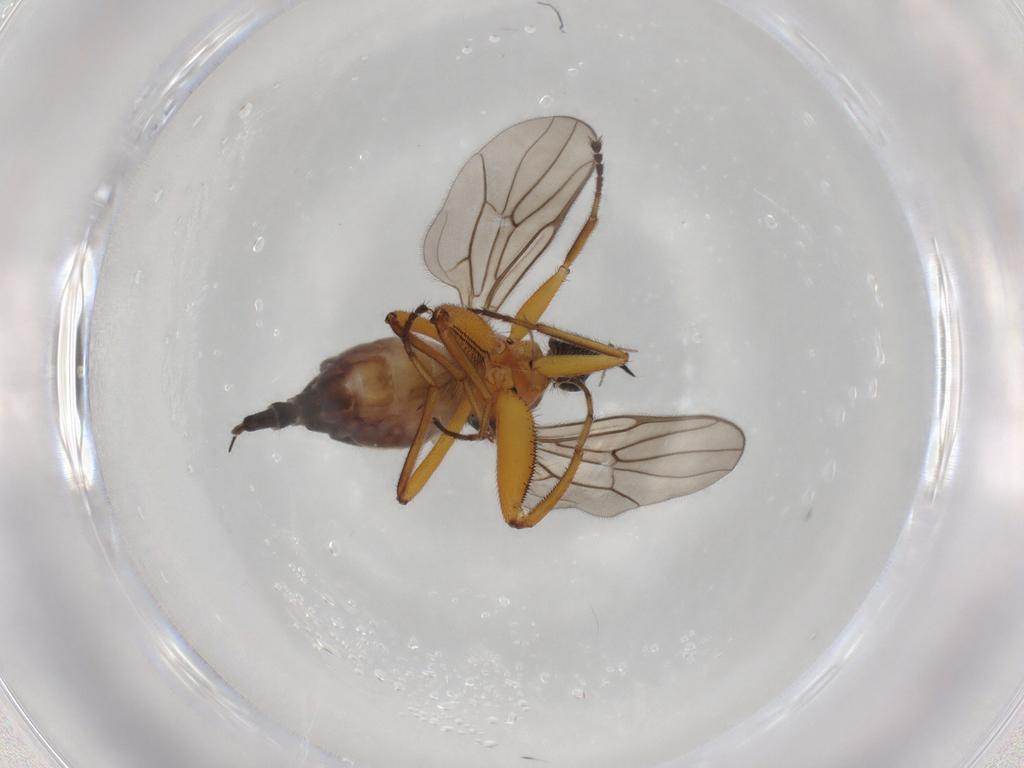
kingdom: Animalia
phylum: Arthropoda
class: Insecta
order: Diptera
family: Hybotidae
